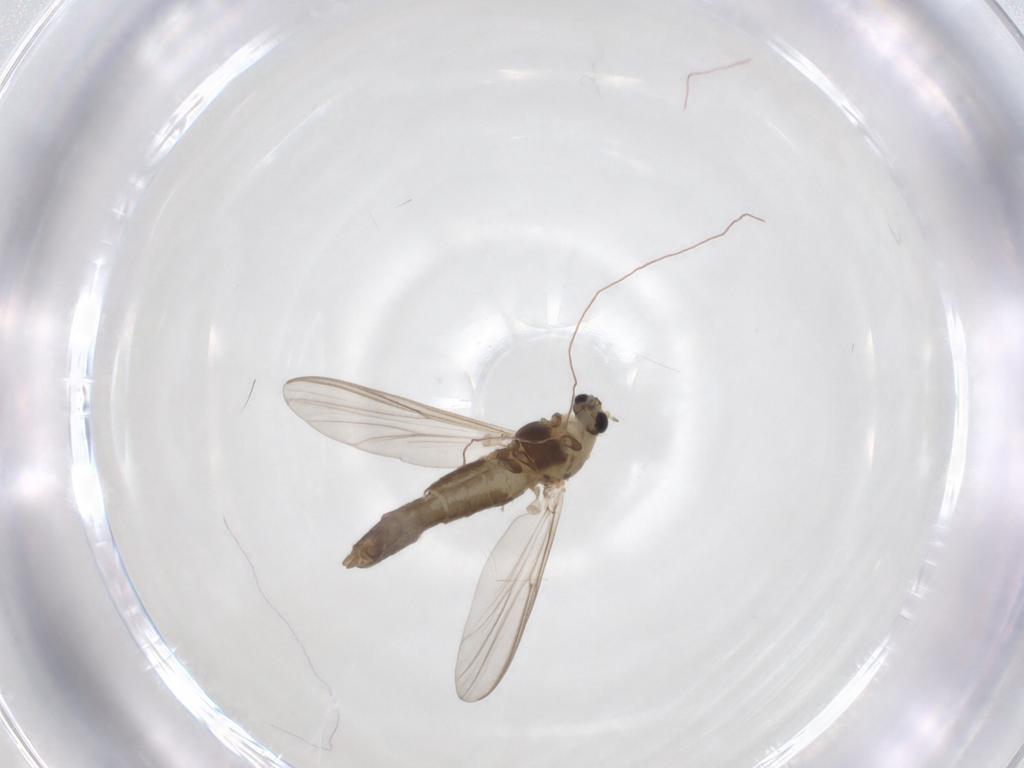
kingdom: Animalia
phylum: Arthropoda
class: Insecta
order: Diptera
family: Chironomidae
